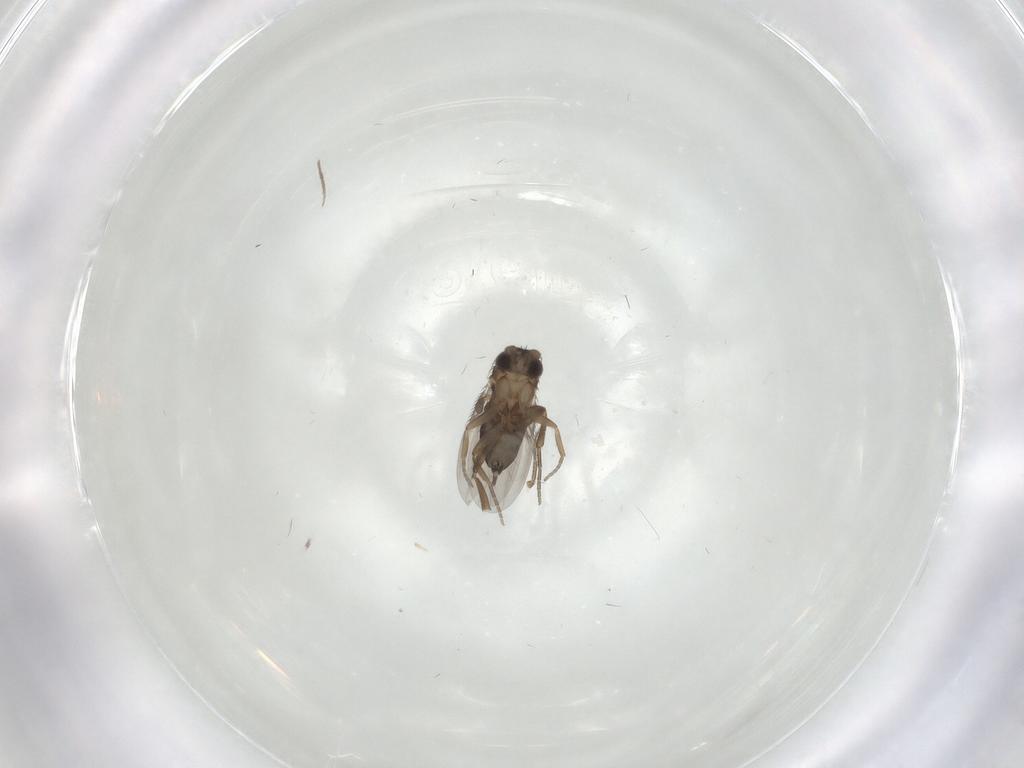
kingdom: Animalia
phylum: Arthropoda
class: Insecta
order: Diptera
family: Phoridae
